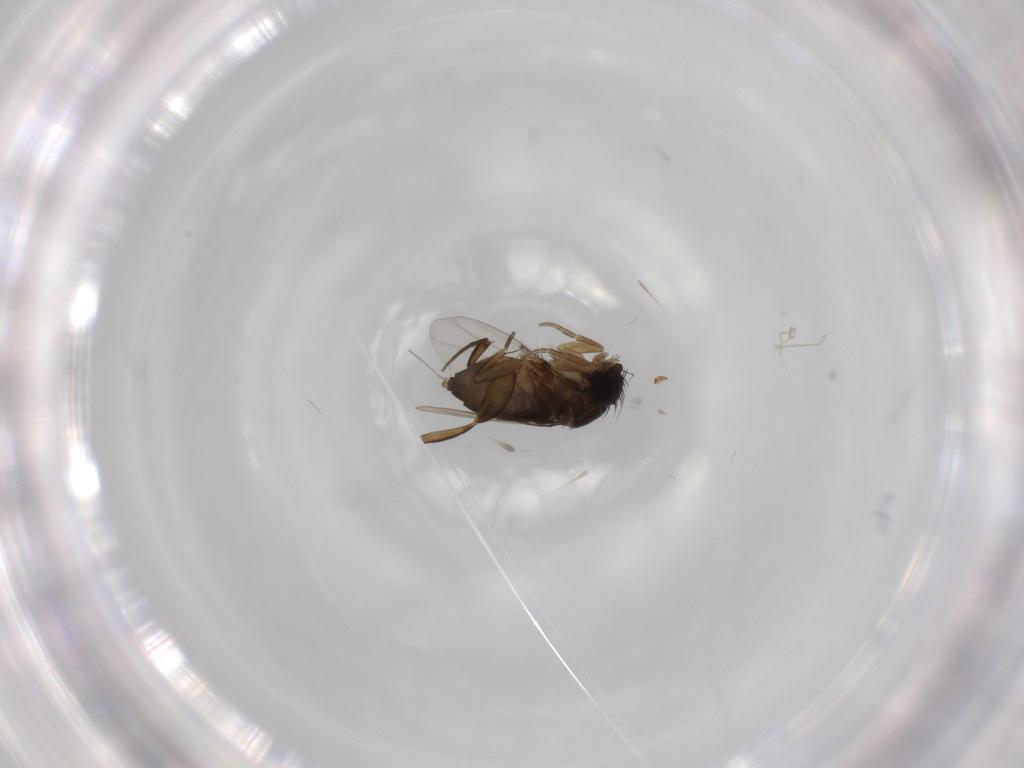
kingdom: Animalia
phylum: Arthropoda
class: Insecta
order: Diptera
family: Phoridae
